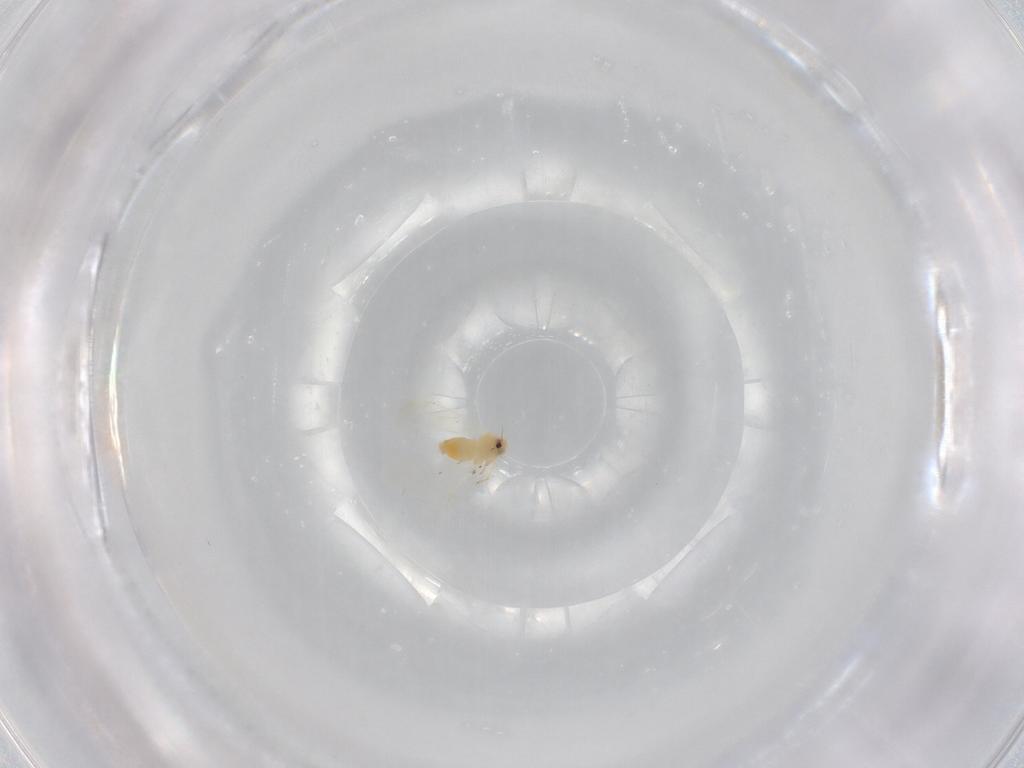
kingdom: Animalia
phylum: Arthropoda
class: Insecta
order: Hemiptera
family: Aleyrodidae
